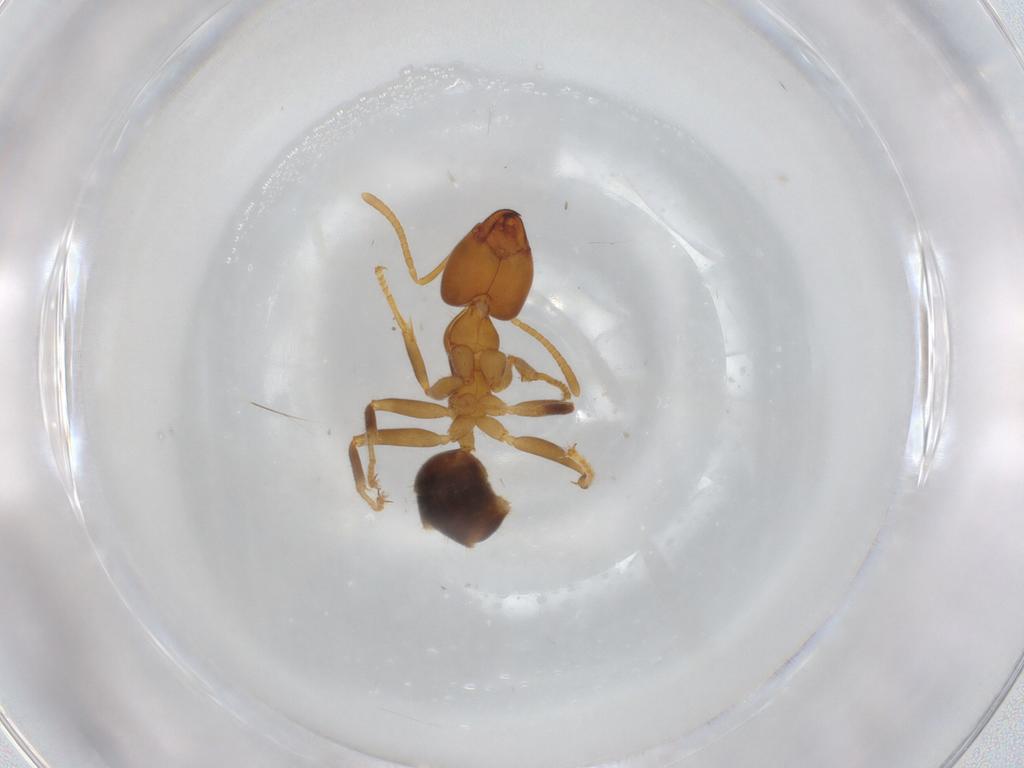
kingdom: Animalia
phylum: Arthropoda
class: Insecta
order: Hymenoptera
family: Formicidae
